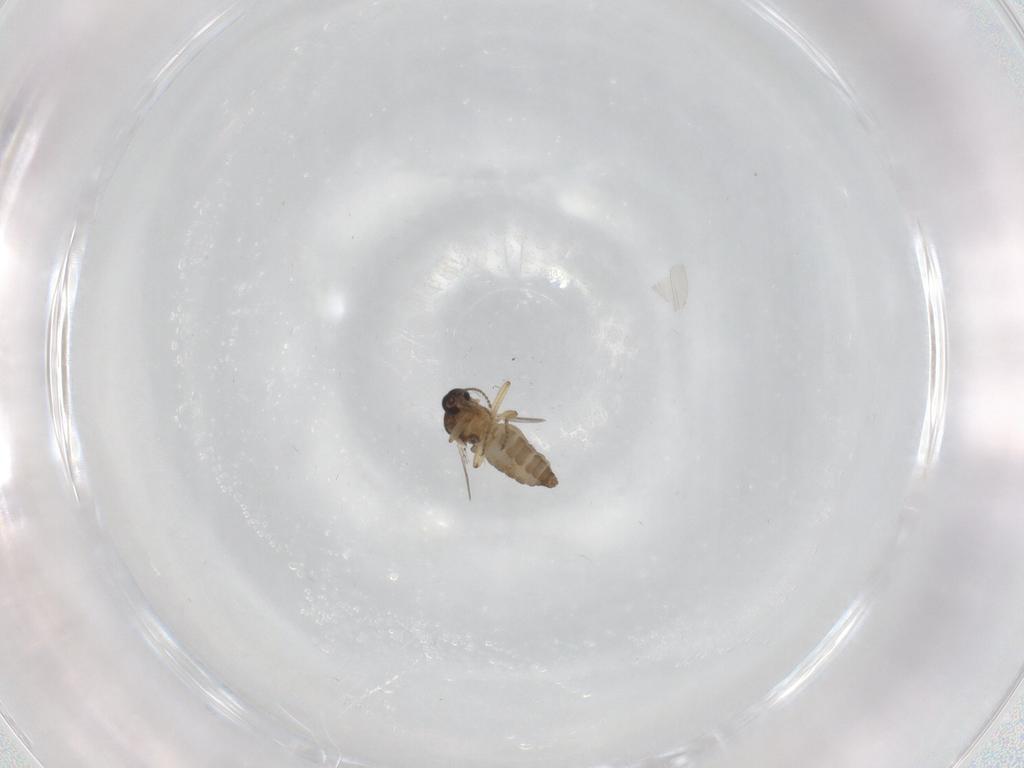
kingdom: Animalia
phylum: Arthropoda
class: Insecta
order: Diptera
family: Ceratopogonidae
